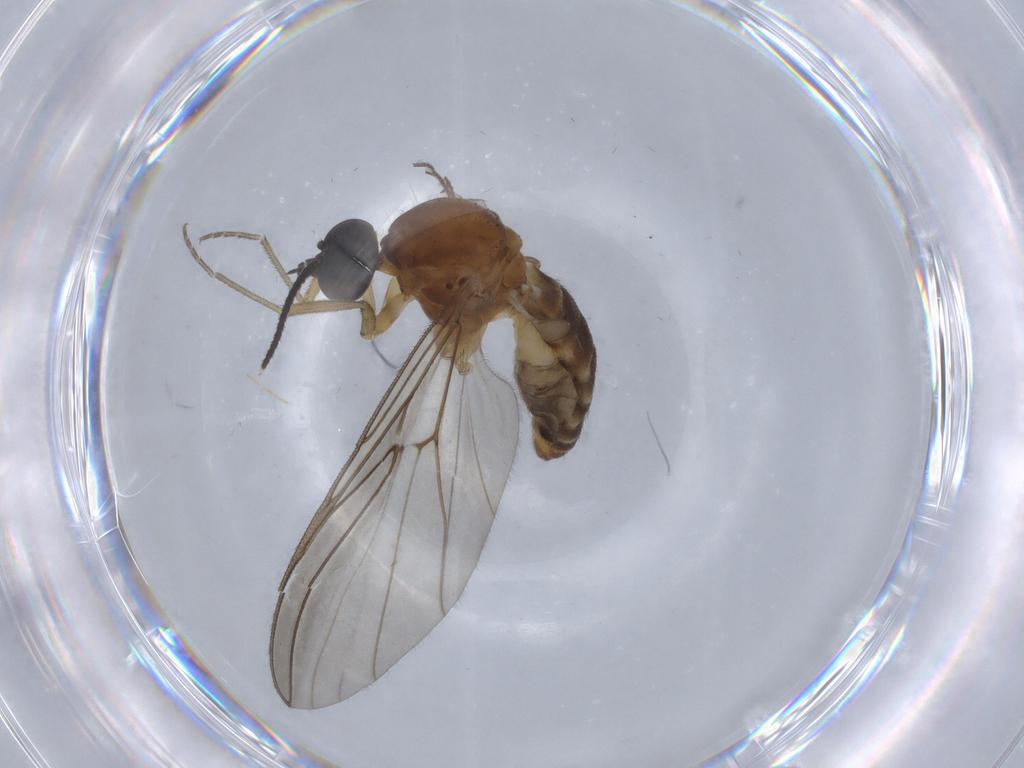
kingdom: Animalia
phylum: Arthropoda
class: Insecta
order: Diptera
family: Anisopodidae
